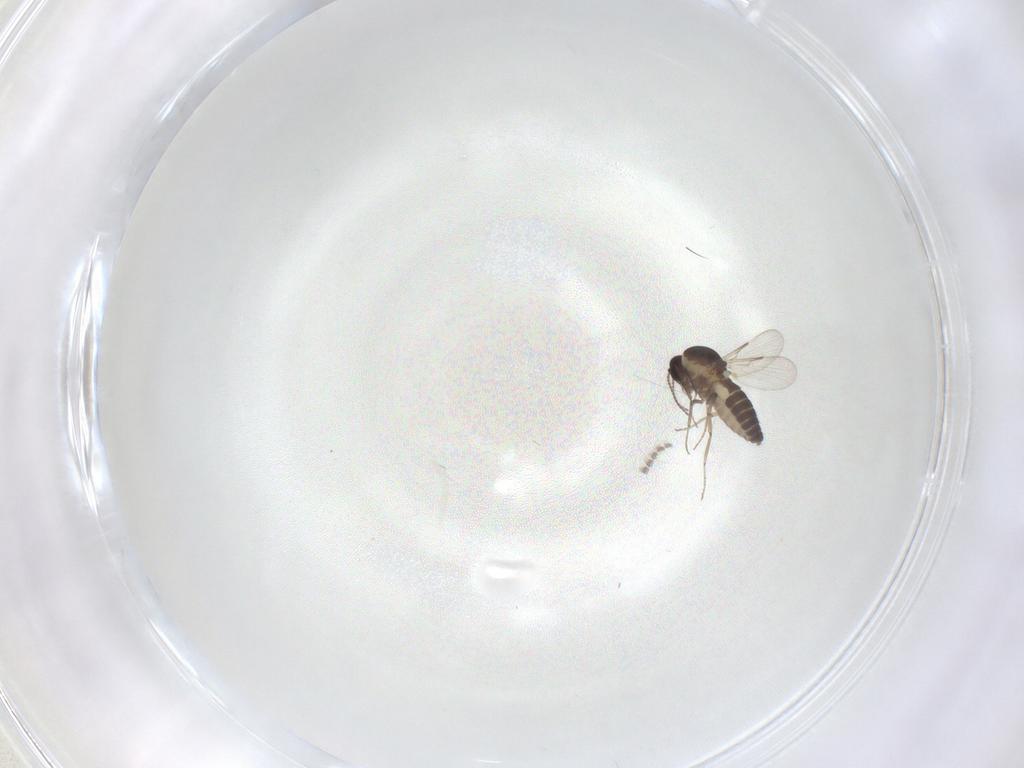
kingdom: Animalia
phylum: Arthropoda
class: Insecta
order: Diptera
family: Ceratopogonidae
